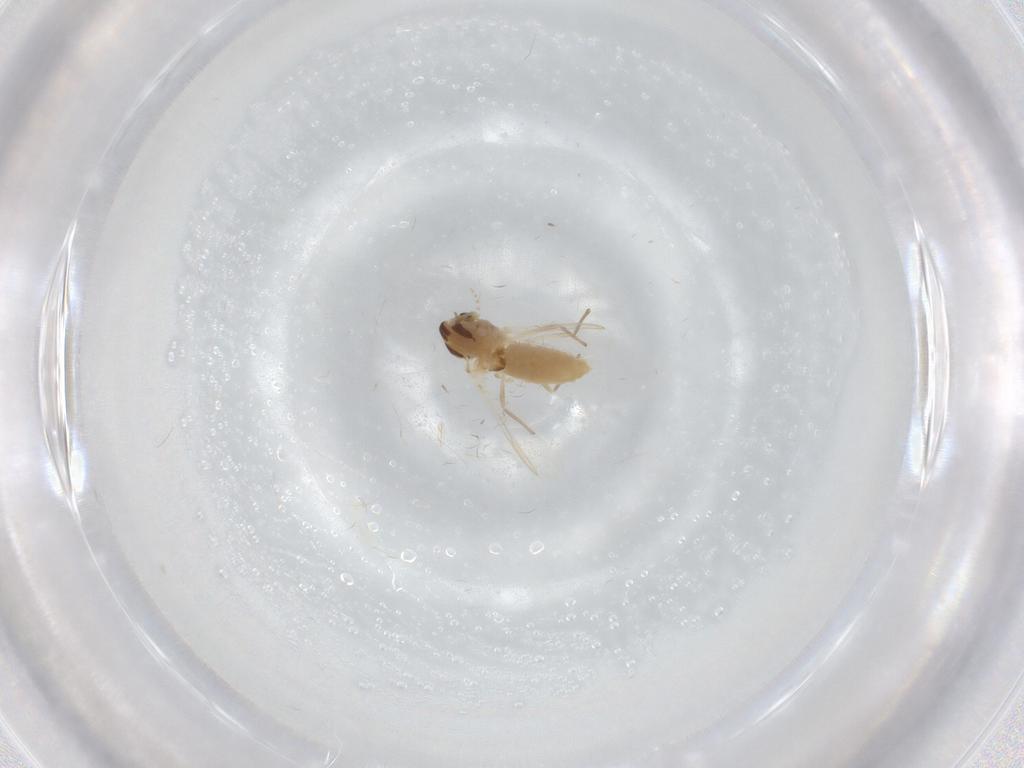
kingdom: Animalia
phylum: Arthropoda
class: Insecta
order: Diptera
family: Chironomidae
